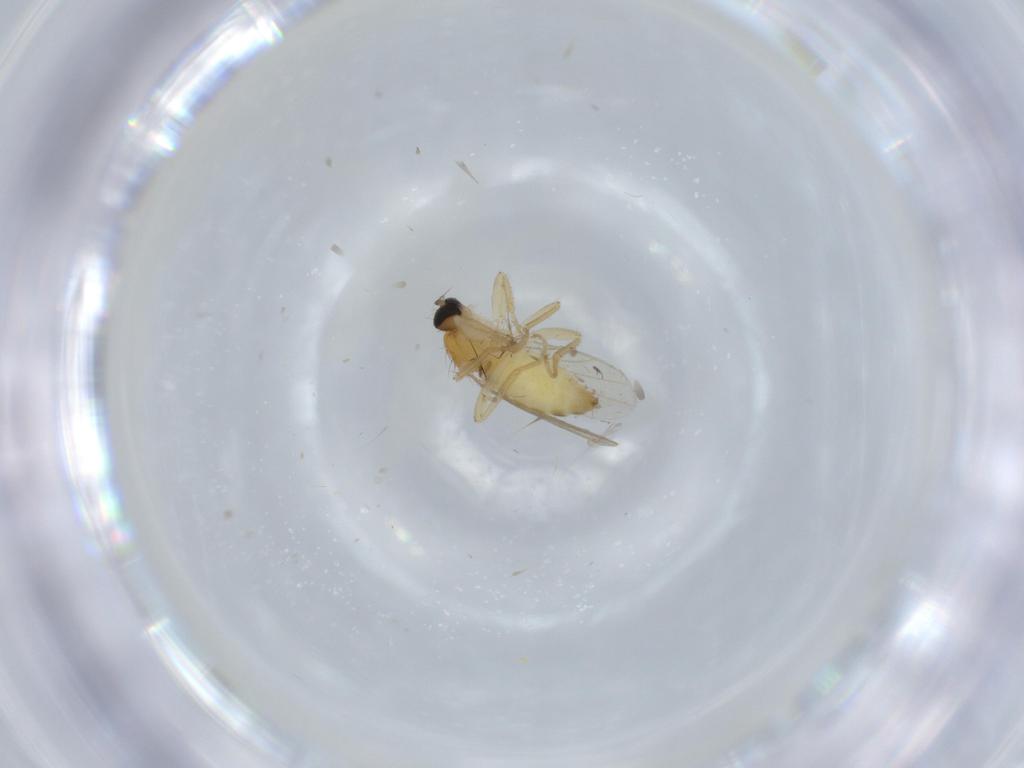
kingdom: Animalia
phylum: Arthropoda
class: Insecta
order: Diptera
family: Hybotidae
